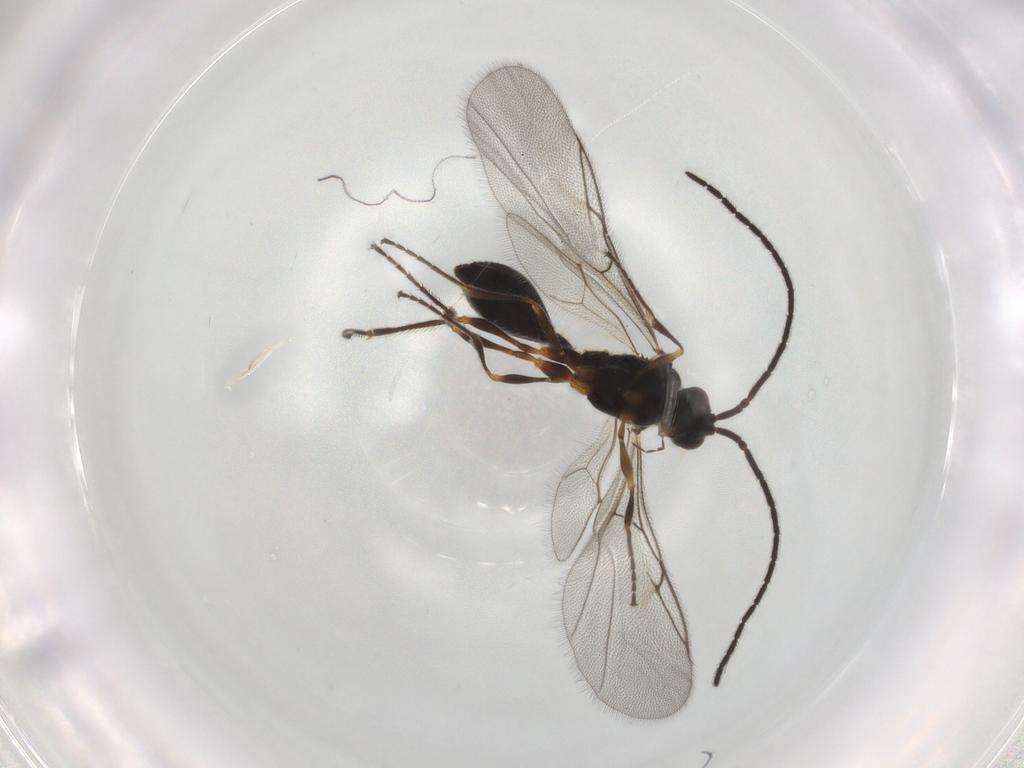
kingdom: Animalia
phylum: Arthropoda
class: Insecta
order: Hymenoptera
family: Diapriidae
